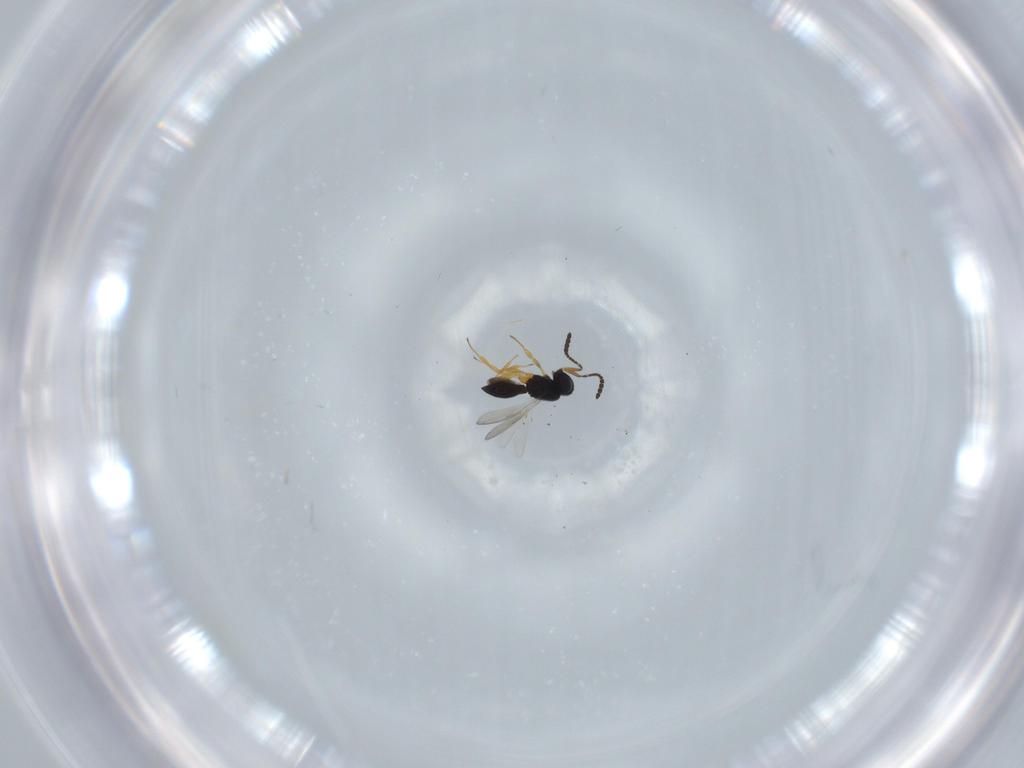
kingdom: Animalia
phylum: Arthropoda
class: Insecta
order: Hymenoptera
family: Scelionidae
